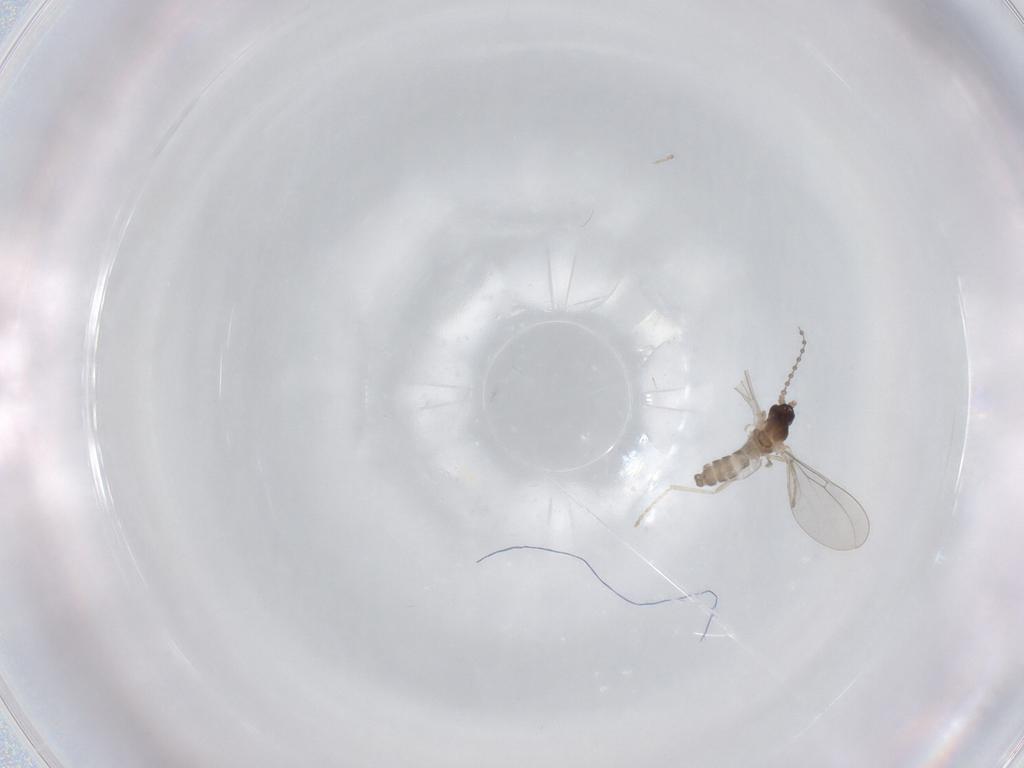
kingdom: Animalia
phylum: Arthropoda
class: Insecta
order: Diptera
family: Cecidomyiidae
